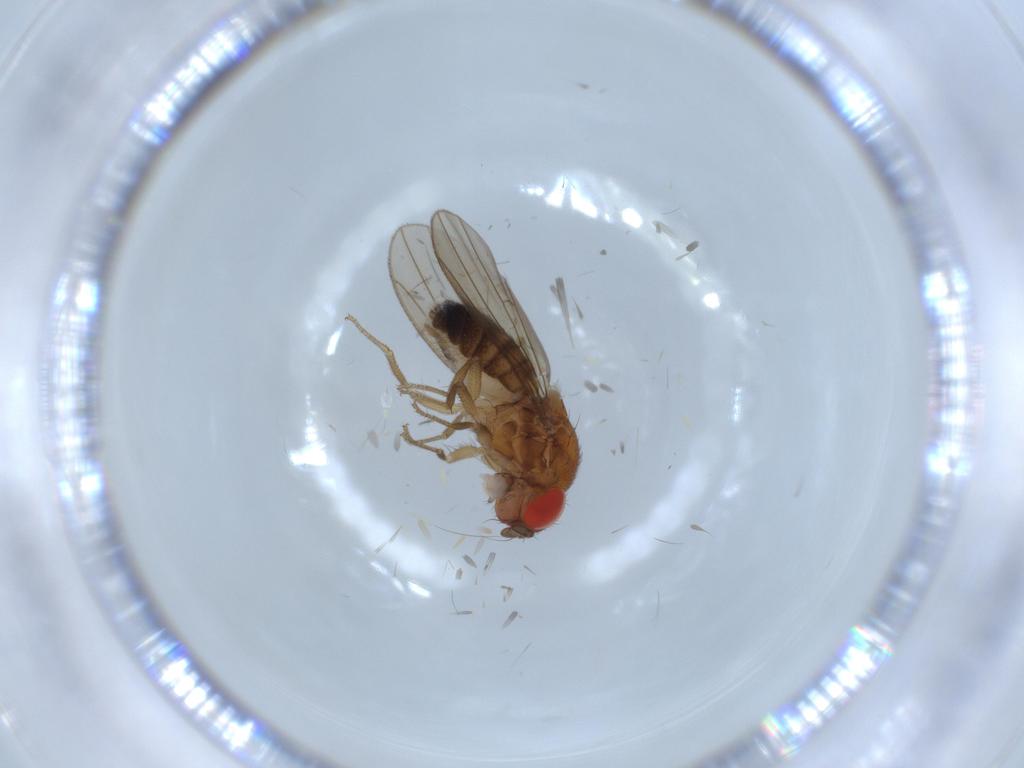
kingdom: Animalia
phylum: Arthropoda
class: Insecta
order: Diptera
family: Drosophilidae
